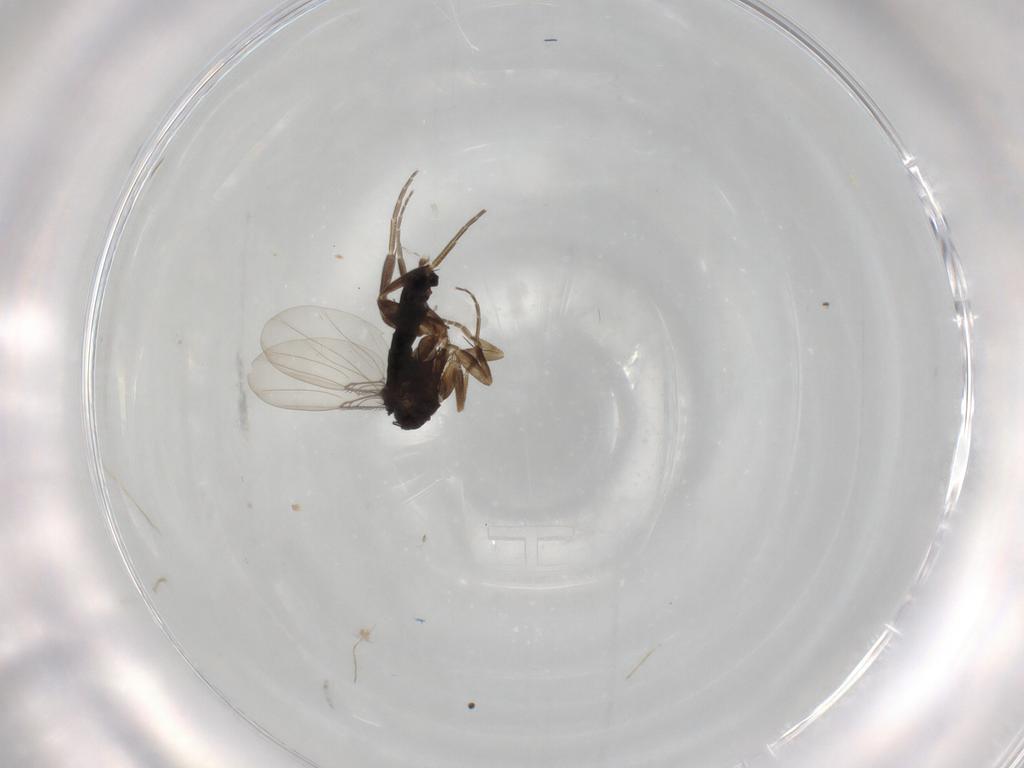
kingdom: Animalia
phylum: Arthropoda
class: Insecta
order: Diptera
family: Phoridae
